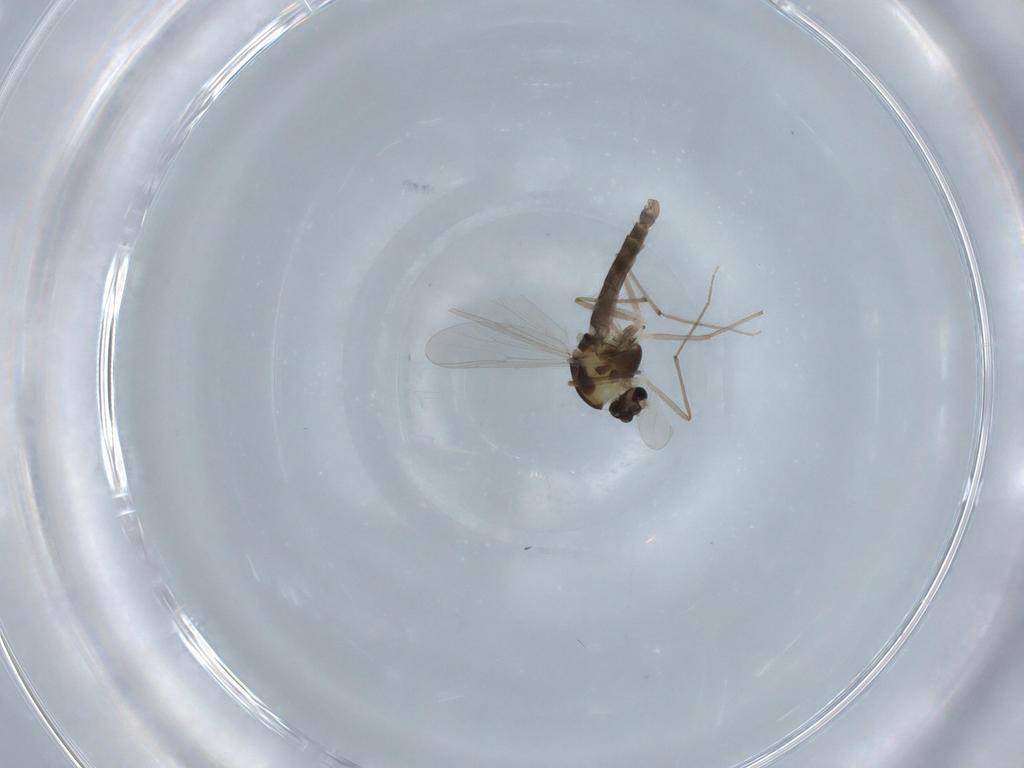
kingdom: Animalia
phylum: Arthropoda
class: Insecta
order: Diptera
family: Chironomidae
